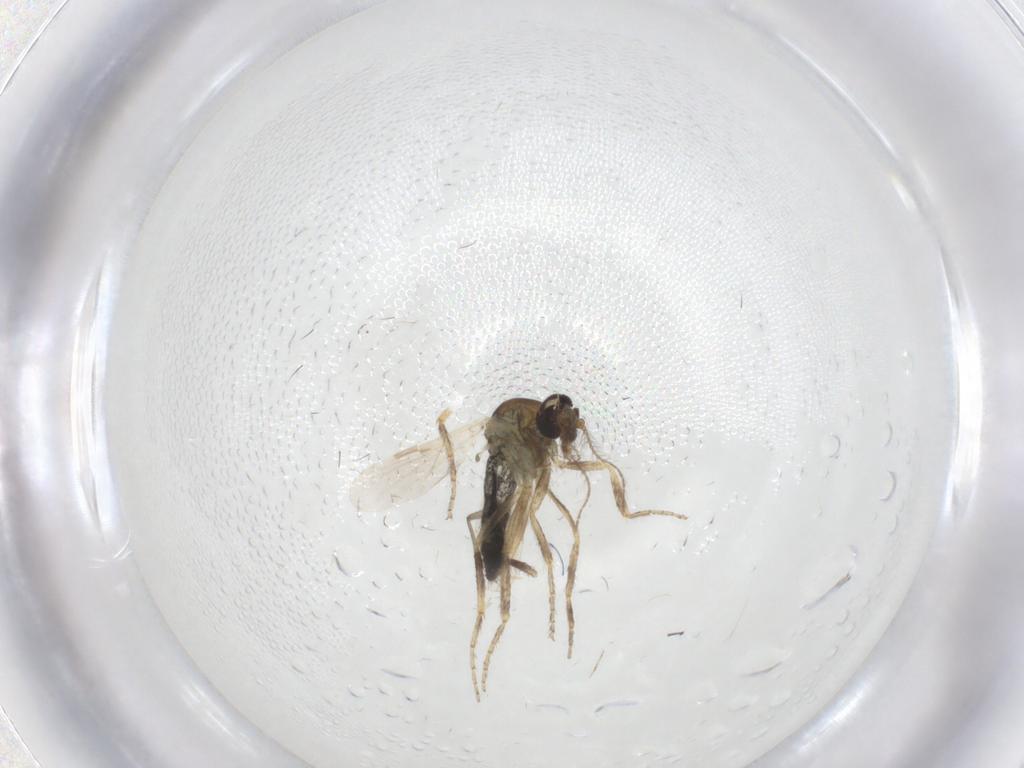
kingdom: Animalia
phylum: Arthropoda
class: Insecta
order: Diptera
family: Sciaridae
